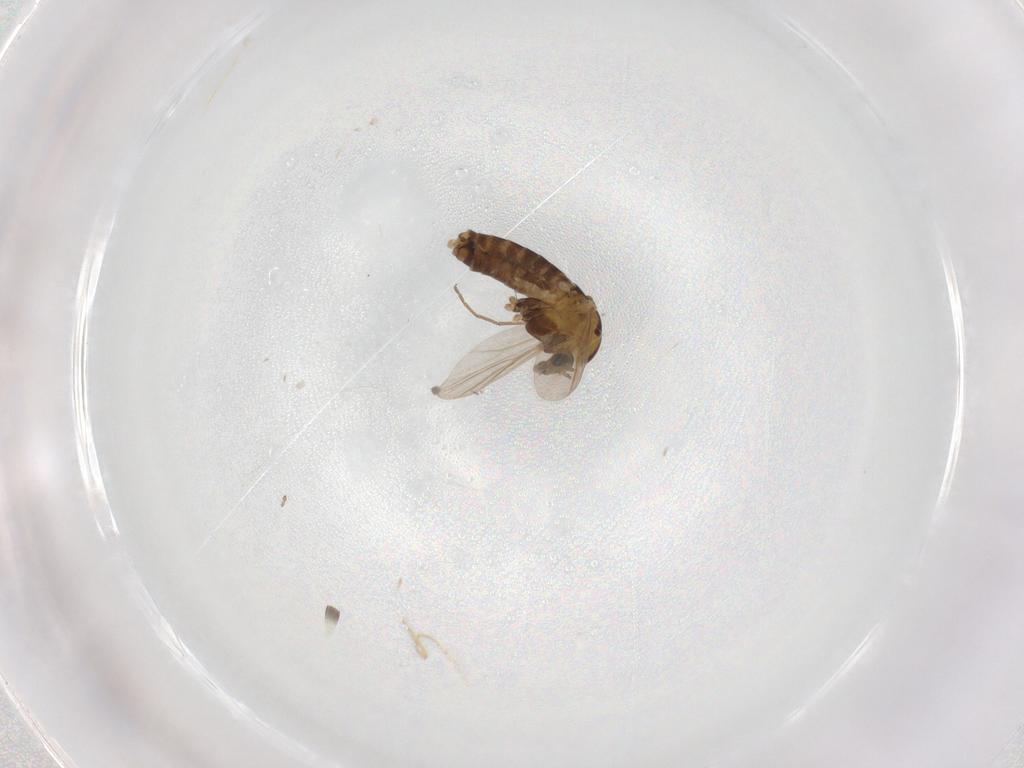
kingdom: Animalia
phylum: Arthropoda
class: Insecta
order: Diptera
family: Chironomidae
